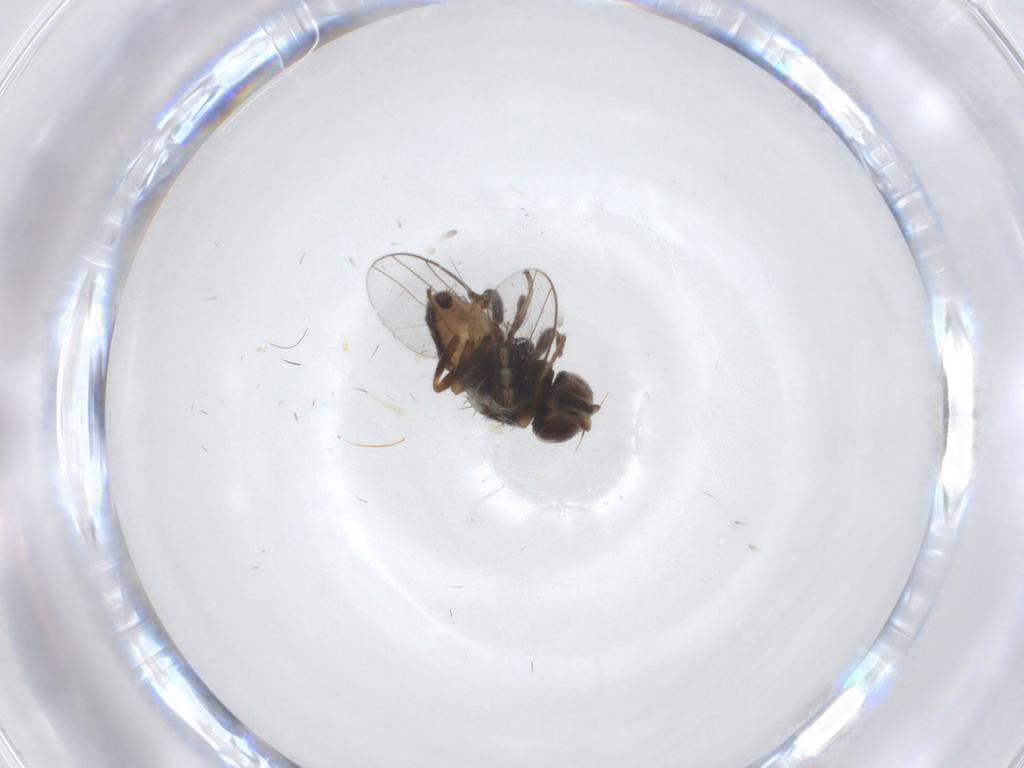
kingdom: Animalia
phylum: Arthropoda
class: Insecta
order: Diptera
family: Chloropidae
